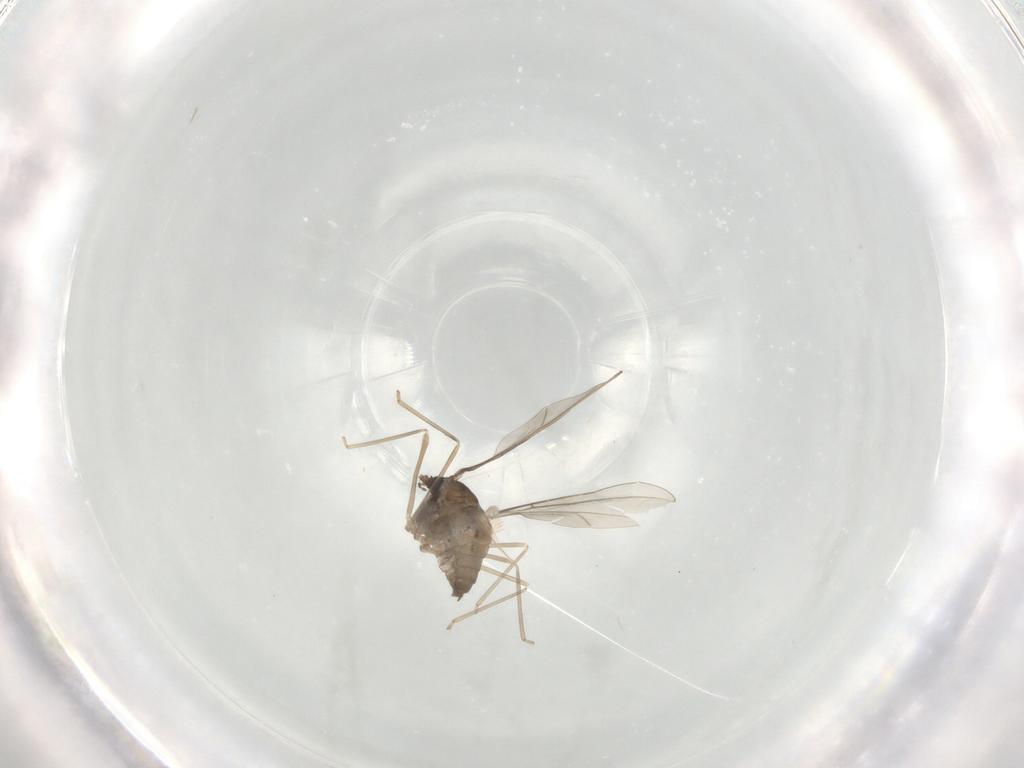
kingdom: Animalia
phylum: Arthropoda
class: Insecta
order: Diptera
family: Cecidomyiidae
